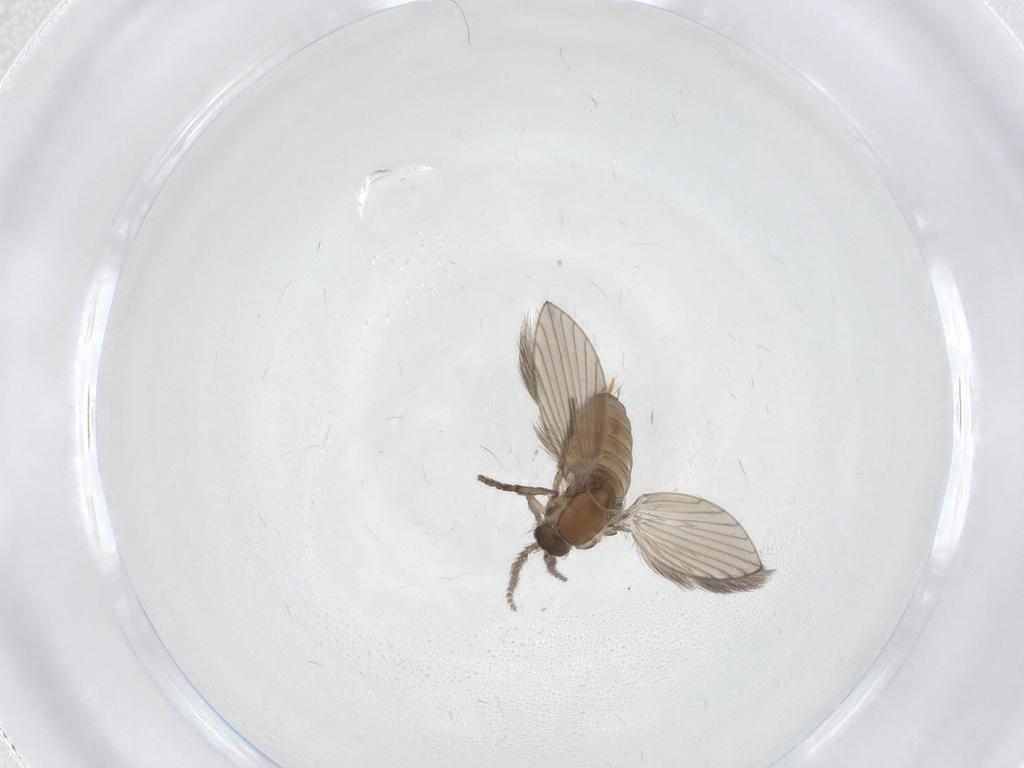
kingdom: Animalia
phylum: Arthropoda
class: Insecta
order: Diptera
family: Psychodidae
